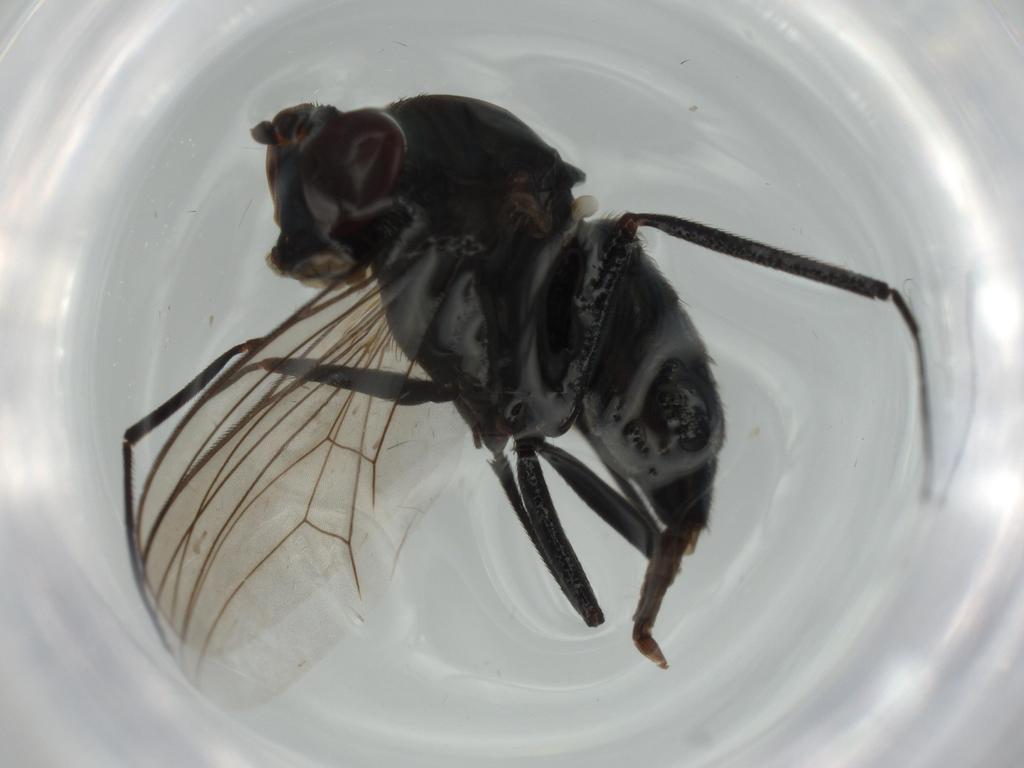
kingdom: Animalia
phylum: Arthropoda
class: Insecta
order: Diptera
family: Dolichopodidae
